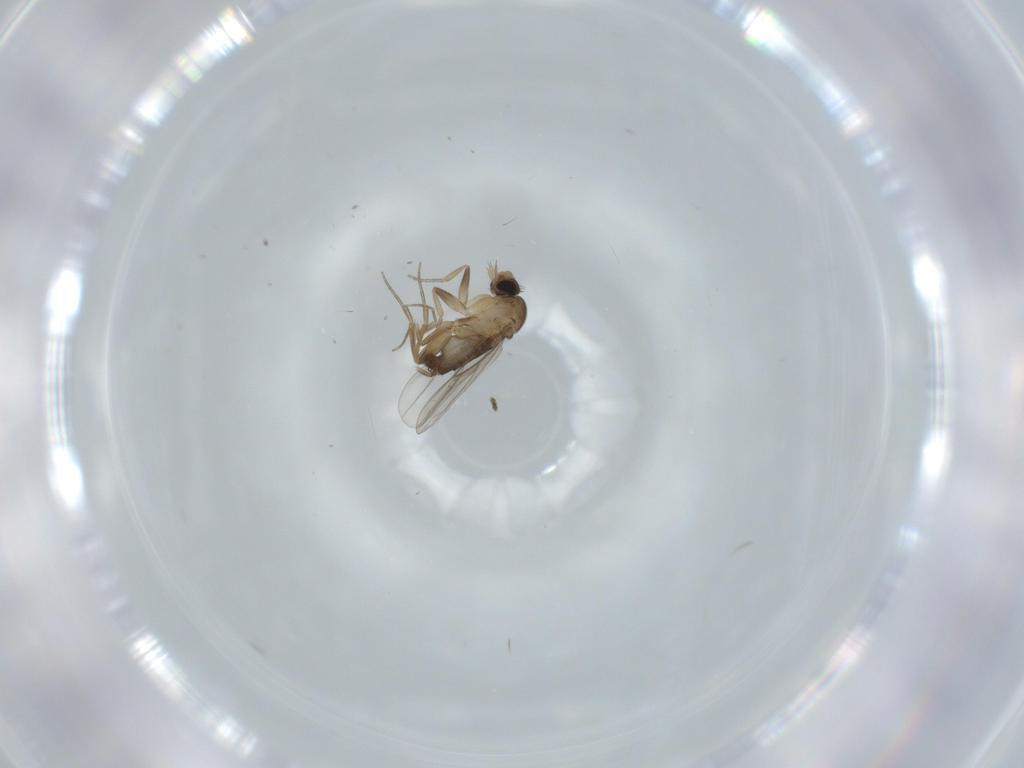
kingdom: Animalia
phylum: Arthropoda
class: Insecta
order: Diptera
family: Phoridae
